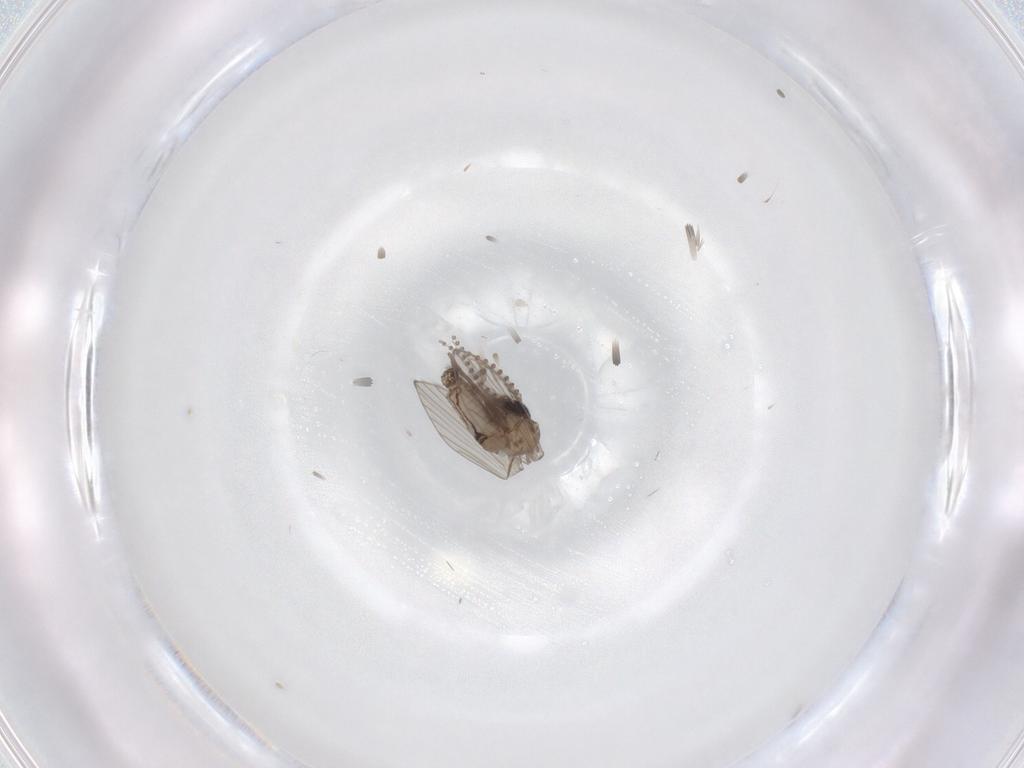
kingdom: Animalia
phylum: Arthropoda
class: Insecta
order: Diptera
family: Psychodidae
